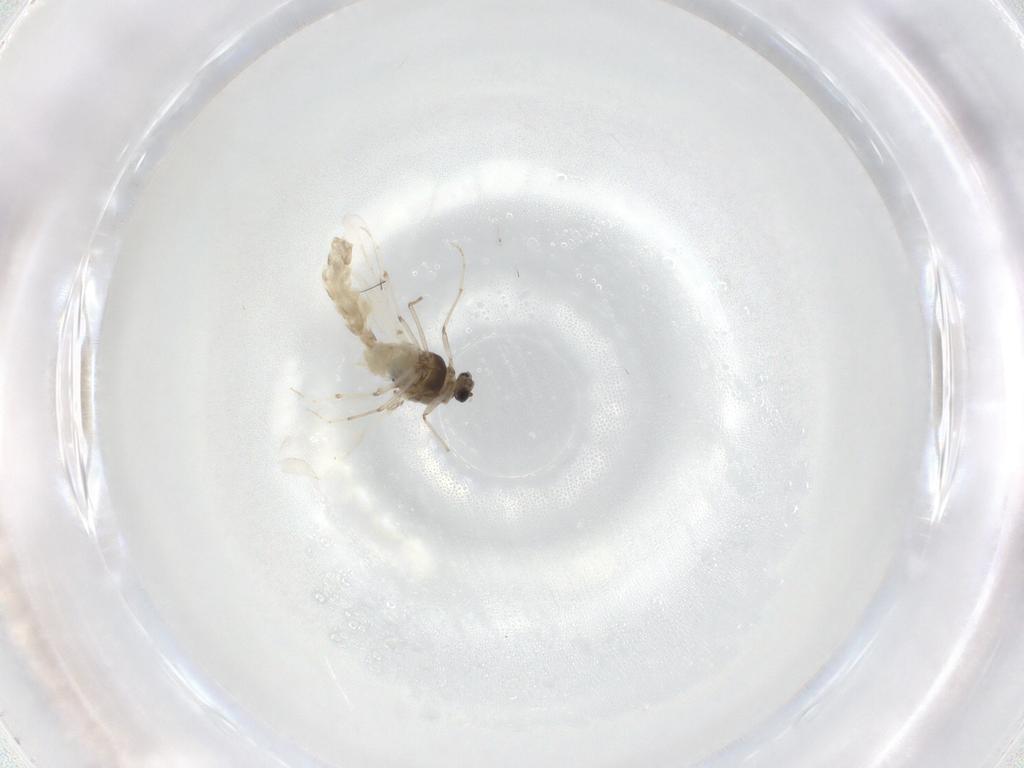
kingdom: Animalia
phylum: Arthropoda
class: Insecta
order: Diptera
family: Chironomidae
